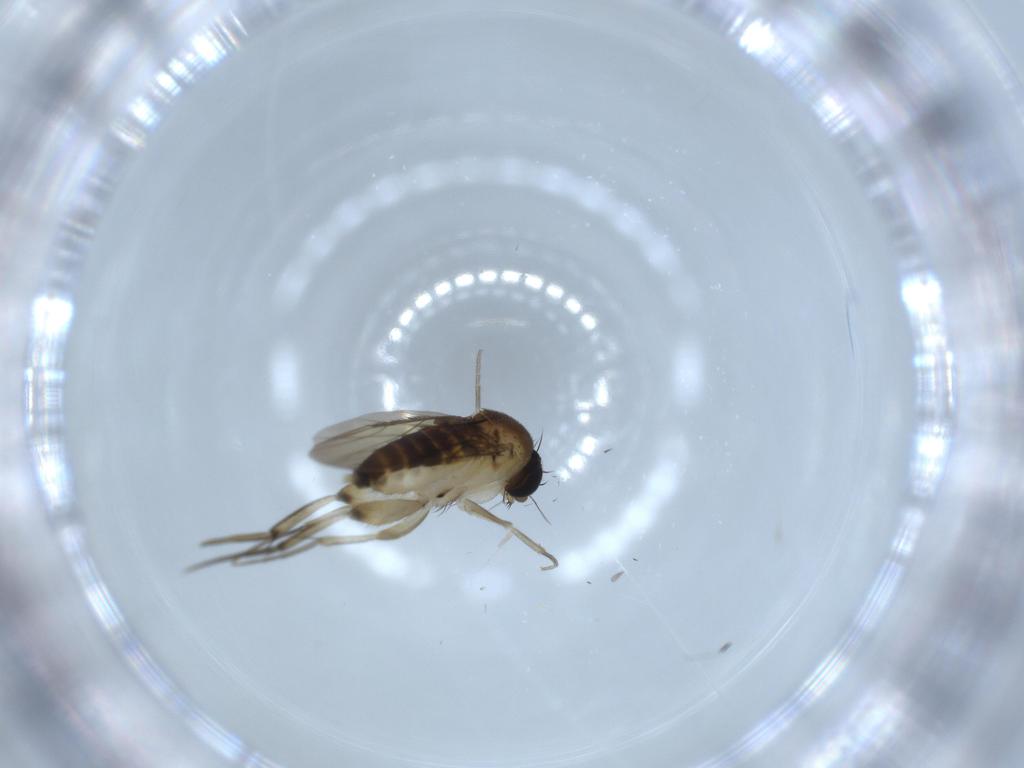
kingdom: Animalia
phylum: Arthropoda
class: Insecta
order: Diptera
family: Phoridae
